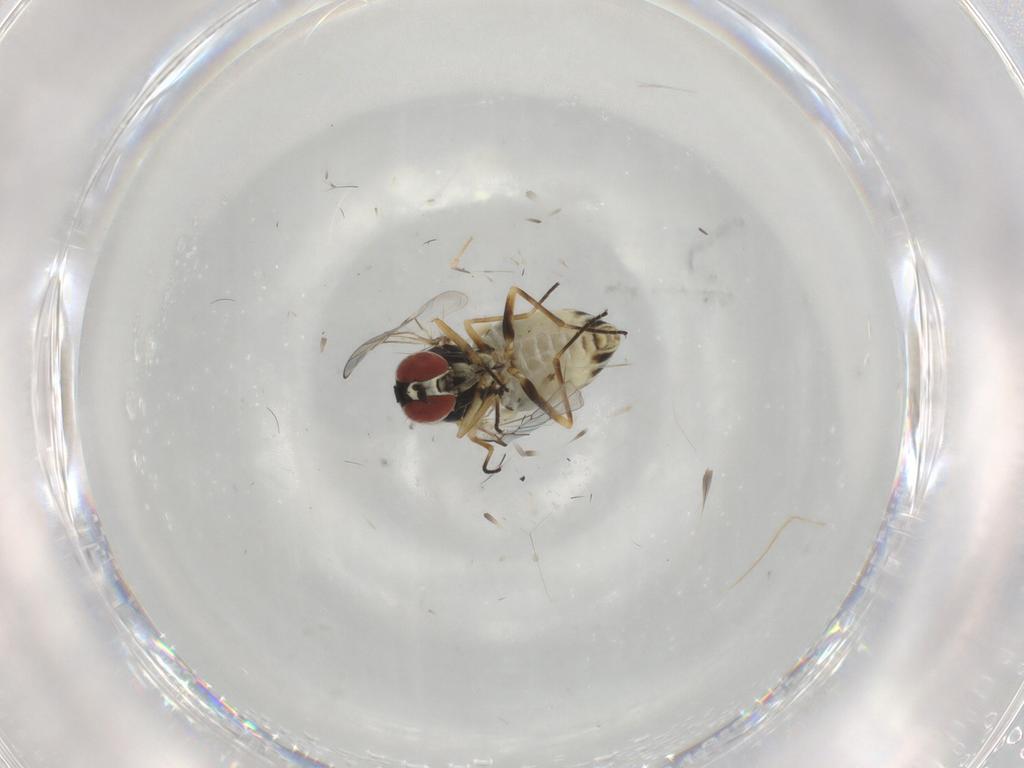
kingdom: Animalia
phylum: Arthropoda
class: Insecta
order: Diptera
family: Bombyliidae
